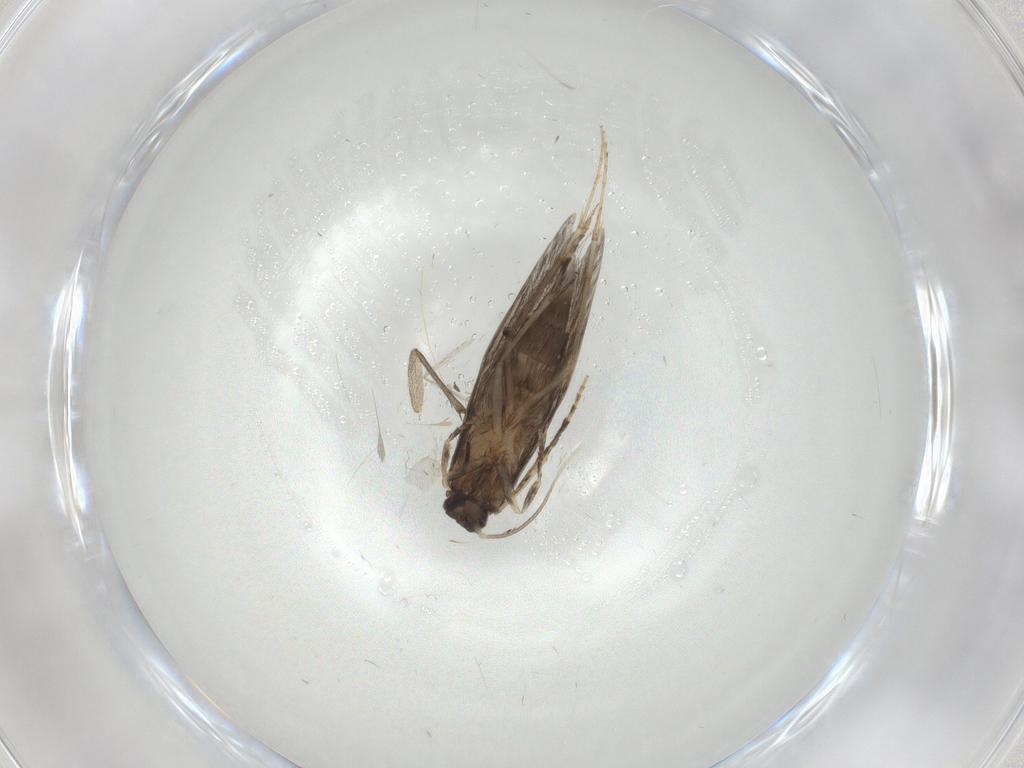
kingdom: Animalia
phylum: Arthropoda
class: Insecta
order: Trichoptera
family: Hydroptilidae
